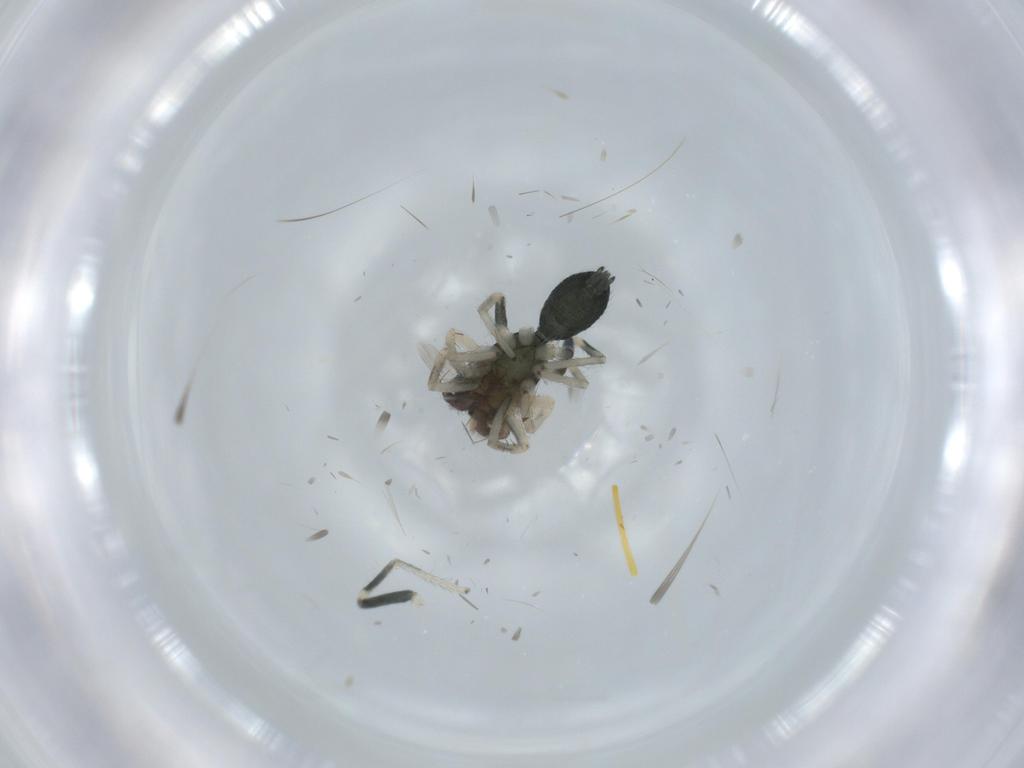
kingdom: Animalia
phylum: Arthropoda
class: Arachnida
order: Araneae
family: Salticidae
